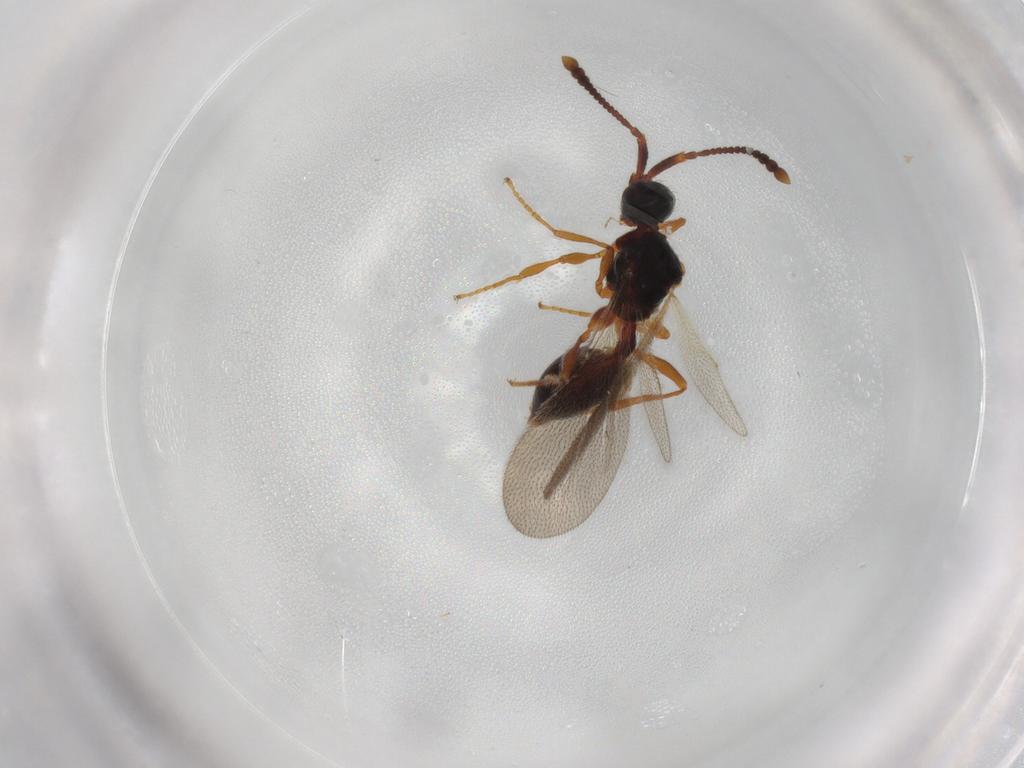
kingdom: Animalia
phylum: Arthropoda
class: Insecta
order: Hymenoptera
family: Diapriidae
